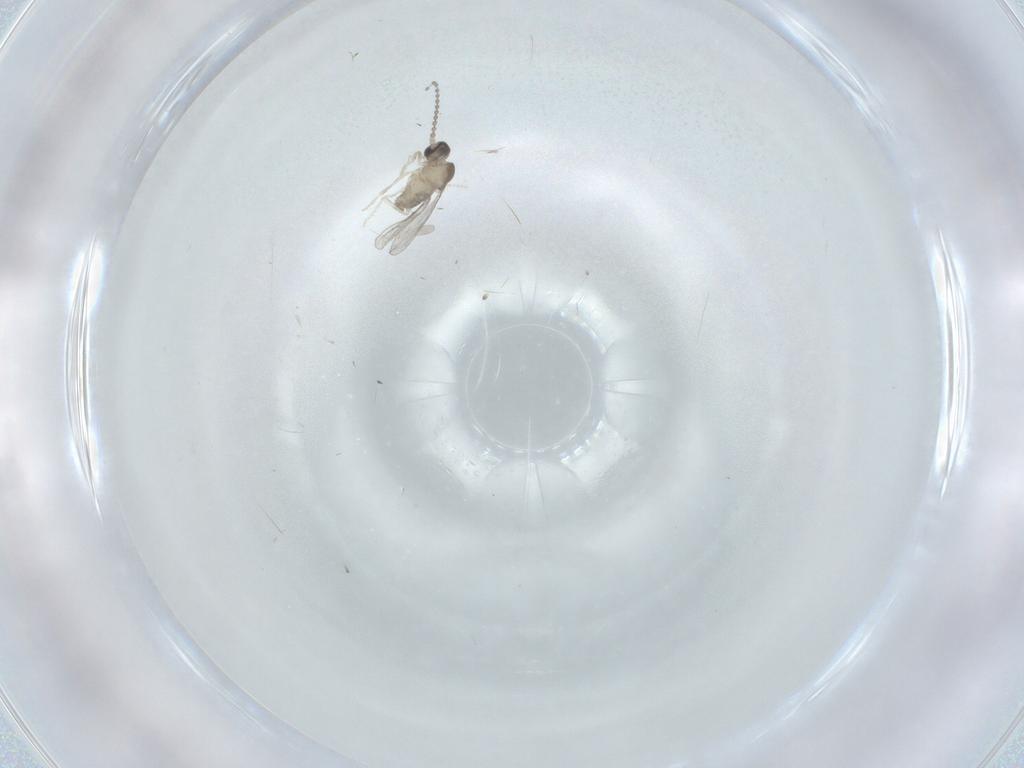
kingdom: Animalia
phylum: Arthropoda
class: Insecta
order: Diptera
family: Cecidomyiidae
